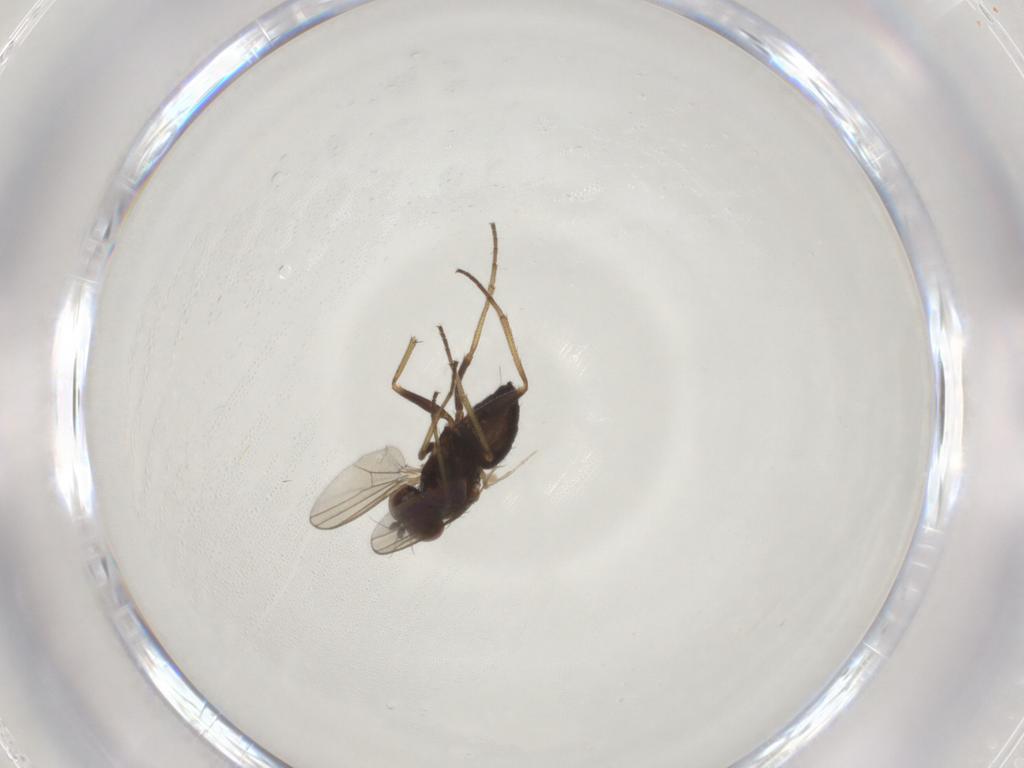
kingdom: Animalia
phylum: Arthropoda
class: Insecta
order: Diptera
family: Dolichopodidae
